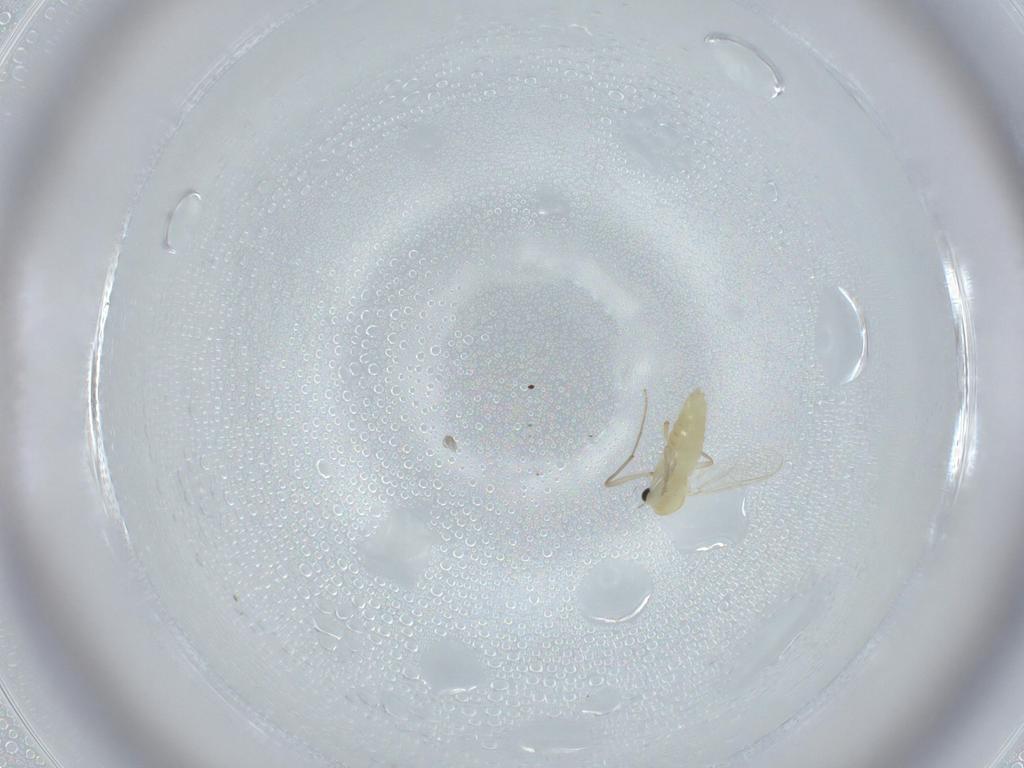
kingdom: Animalia
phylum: Arthropoda
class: Insecta
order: Diptera
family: Chironomidae
